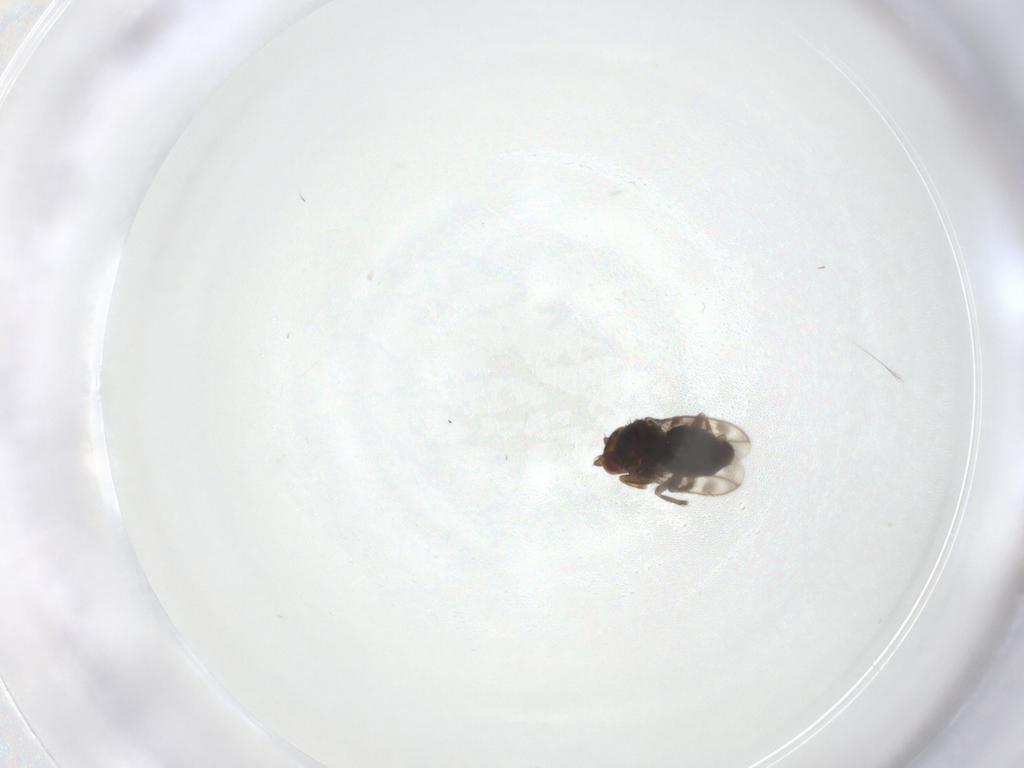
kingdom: Animalia
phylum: Arthropoda
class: Insecta
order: Diptera
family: Sphaeroceridae
